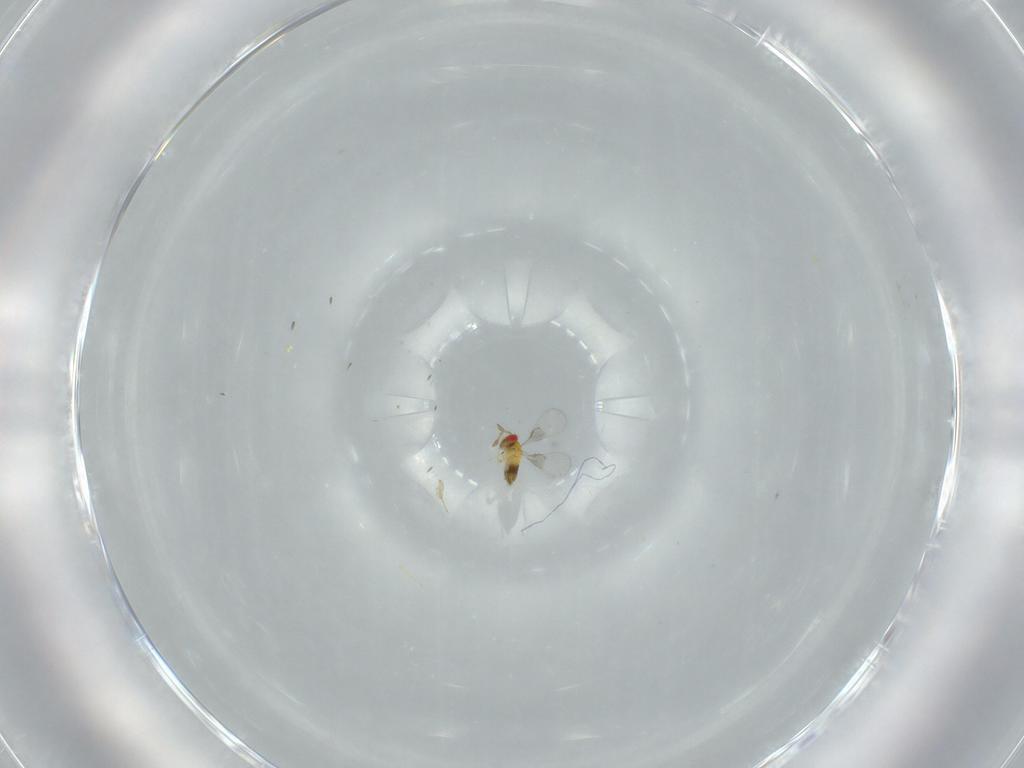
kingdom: Animalia
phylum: Arthropoda
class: Insecta
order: Hymenoptera
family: Trichogrammatidae
